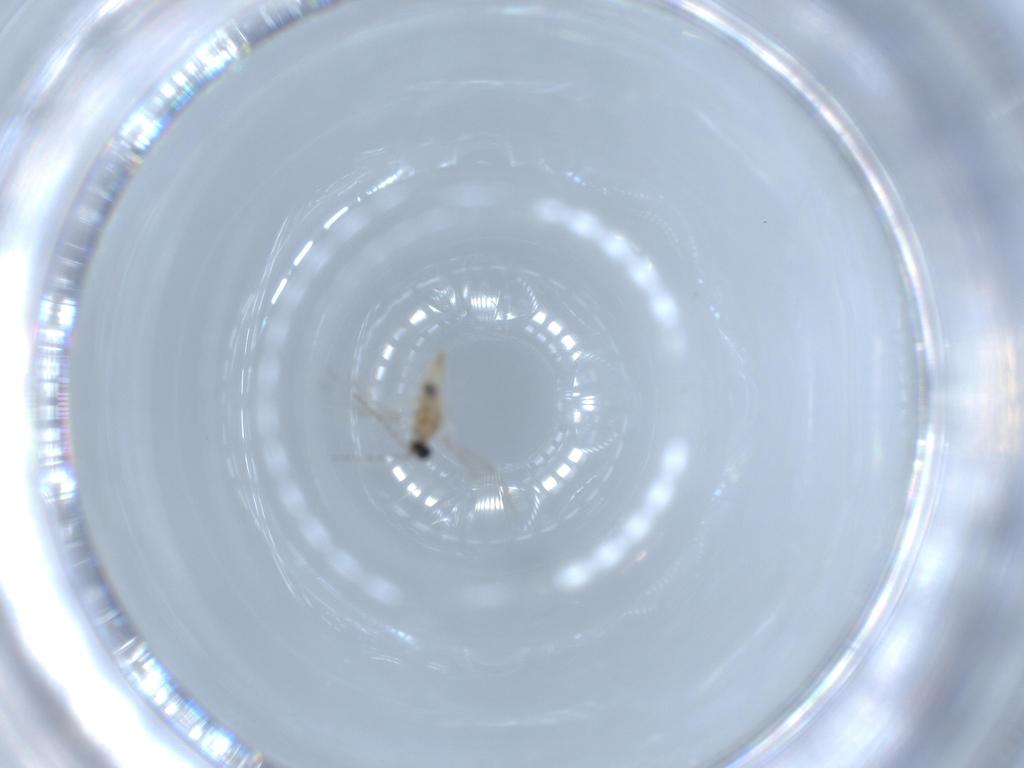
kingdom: Animalia
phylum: Arthropoda
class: Insecta
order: Diptera
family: Cecidomyiidae
